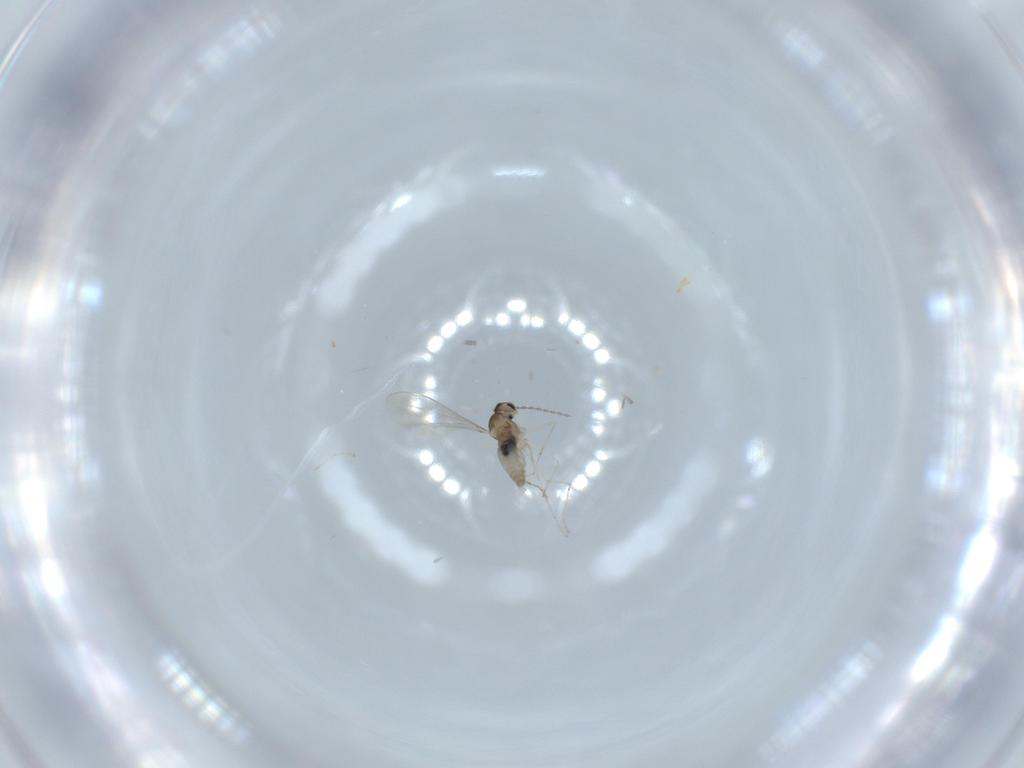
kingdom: Animalia
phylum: Arthropoda
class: Insecta
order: Diptera
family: Cecidomyiidae
